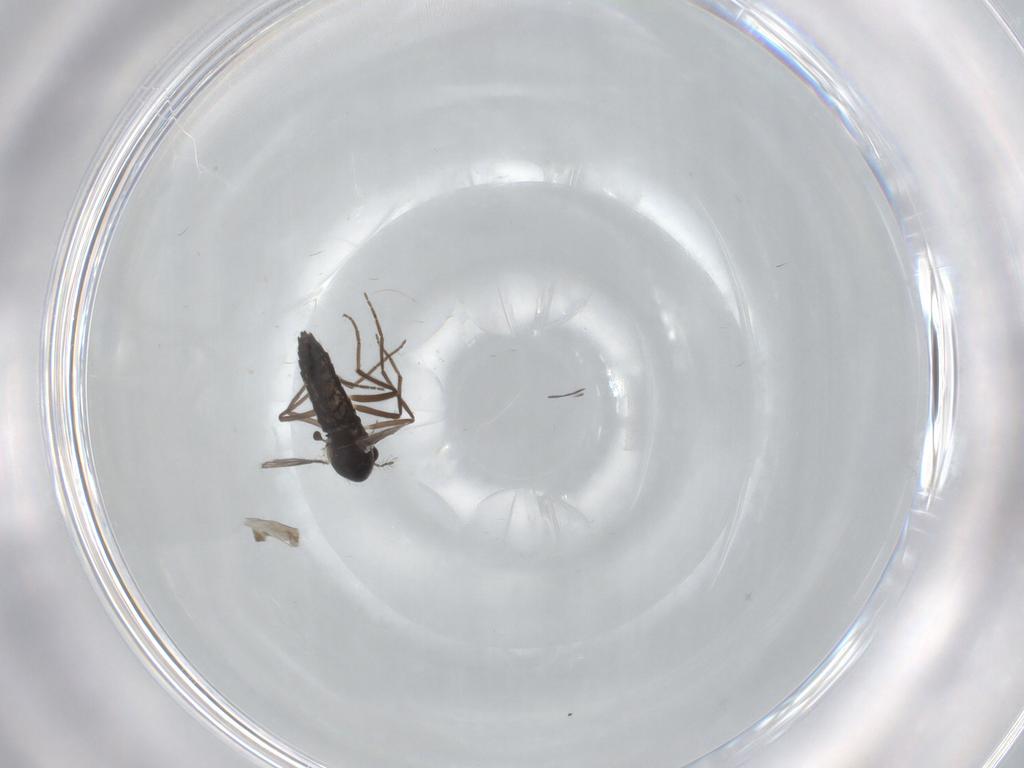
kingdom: Animalia
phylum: Arthropoda
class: Insecta
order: Diptera
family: Chironomidae
